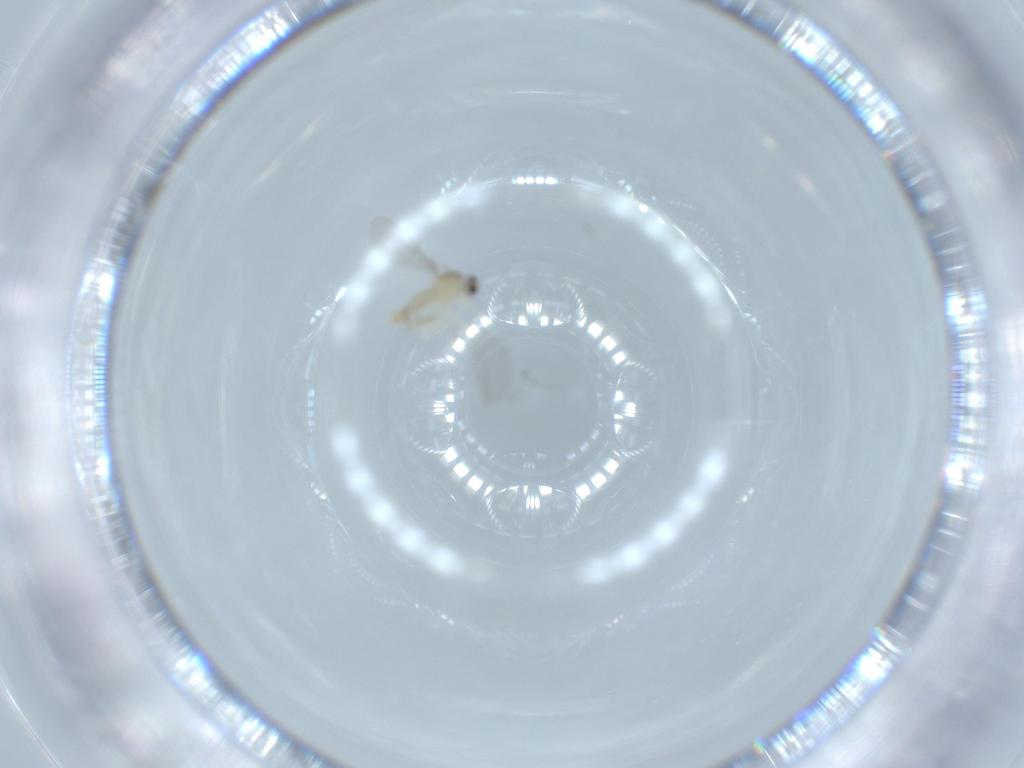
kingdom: Animalia
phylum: Arthropoda
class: Insecta
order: Diptera
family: Cecidomyiidae
